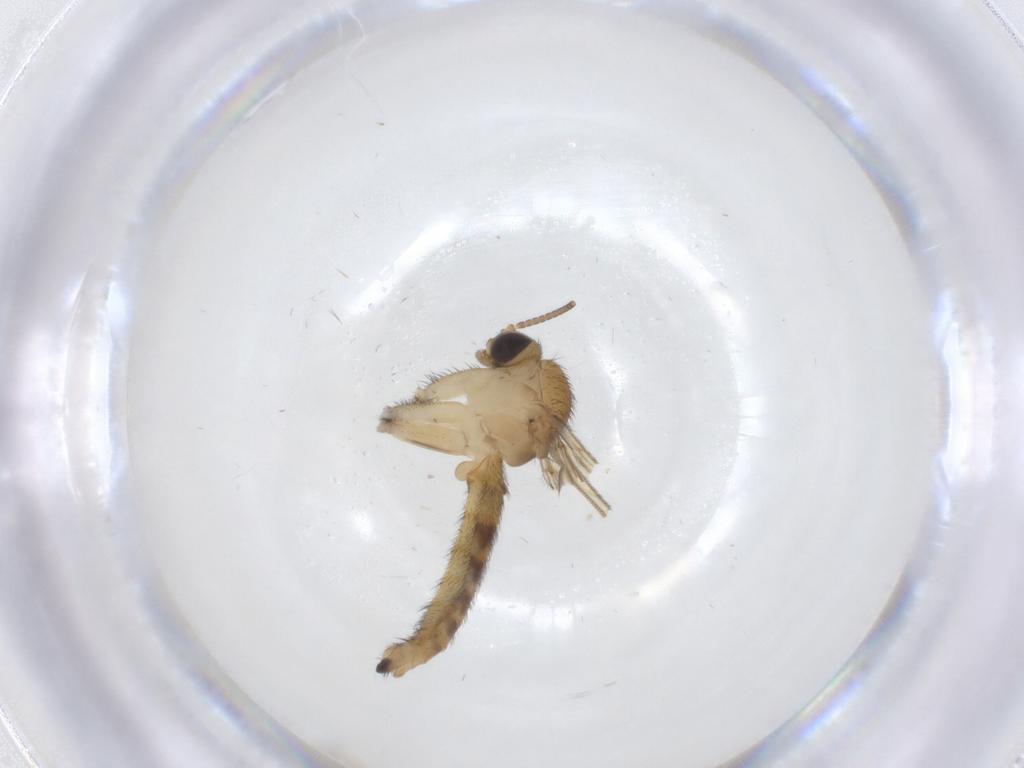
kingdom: Animalia
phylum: Arthropoda
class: Insecta
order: Diptera
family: Keroplatidae
